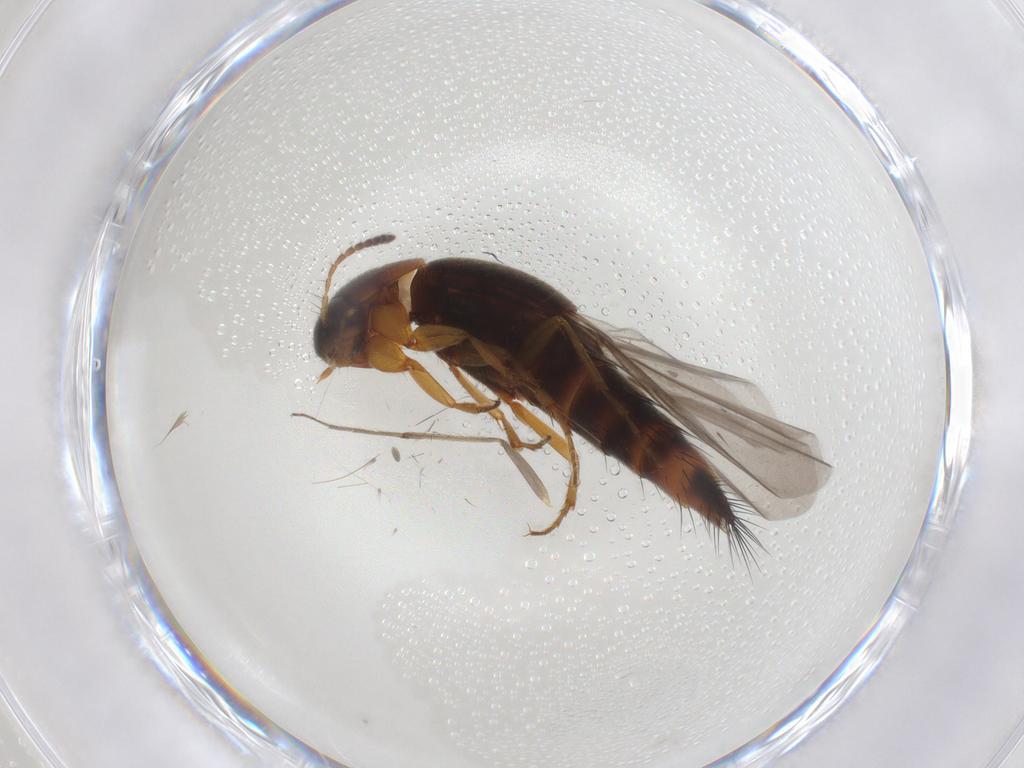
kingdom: Animalia
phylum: Arthropoda
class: Insecta
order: Coleoptera
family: Staphylinidae
